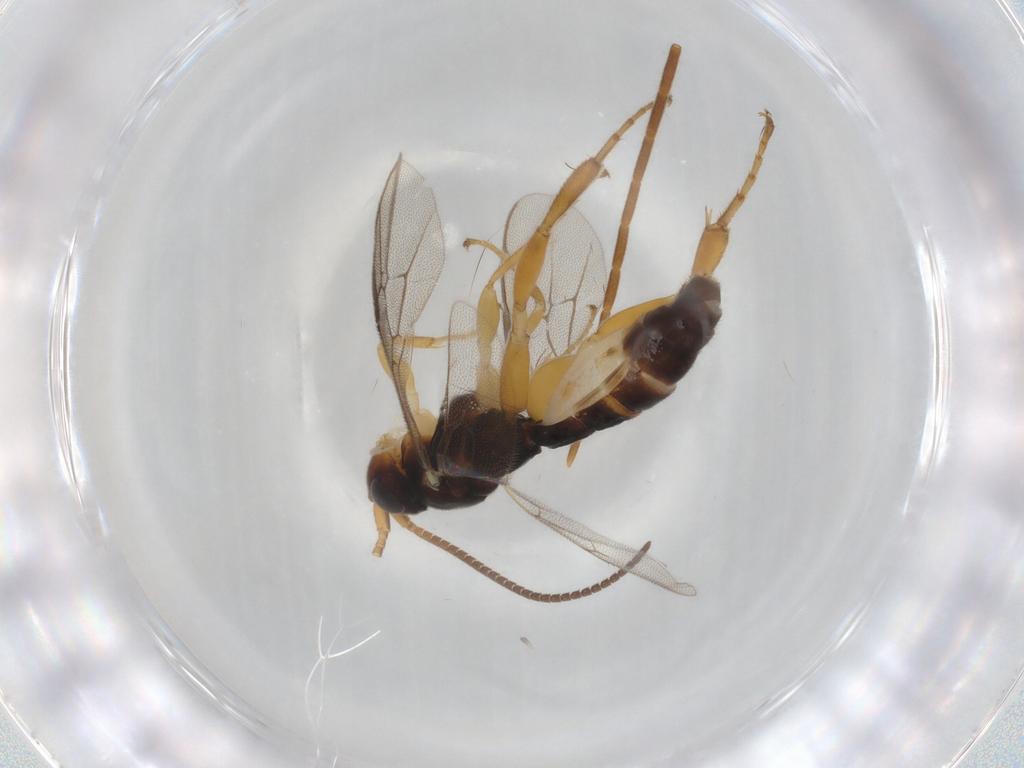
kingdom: Animalia
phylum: Arthropoda
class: Insecta
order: Hymenoptera
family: Ichneumonidae
